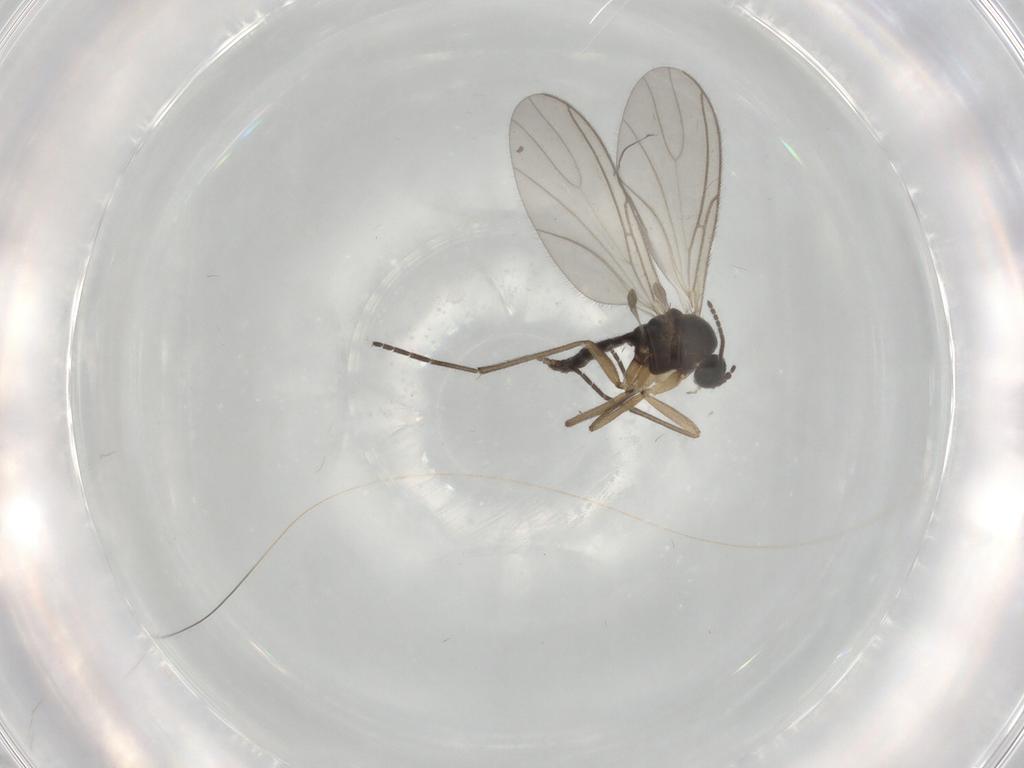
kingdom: Animalia
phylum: Arthropoda
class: Insecta
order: Diptera
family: Sciaridae
